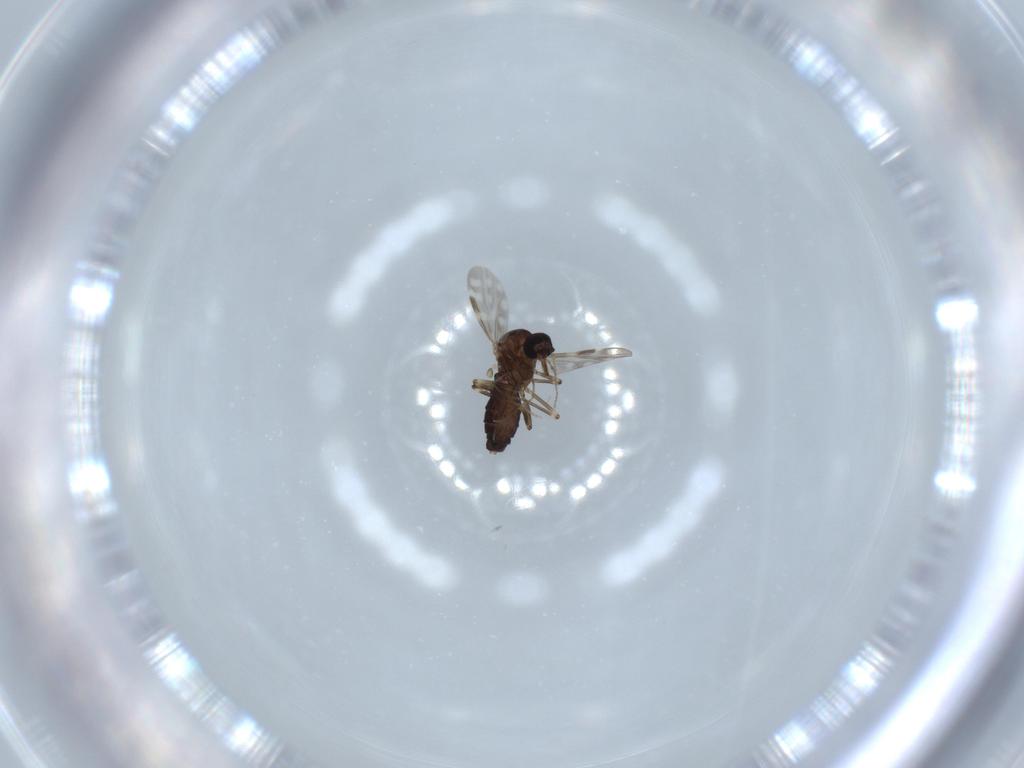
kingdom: Animalia
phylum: Arthropoda
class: Insecta
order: Diptera
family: Ceratopogonidae
